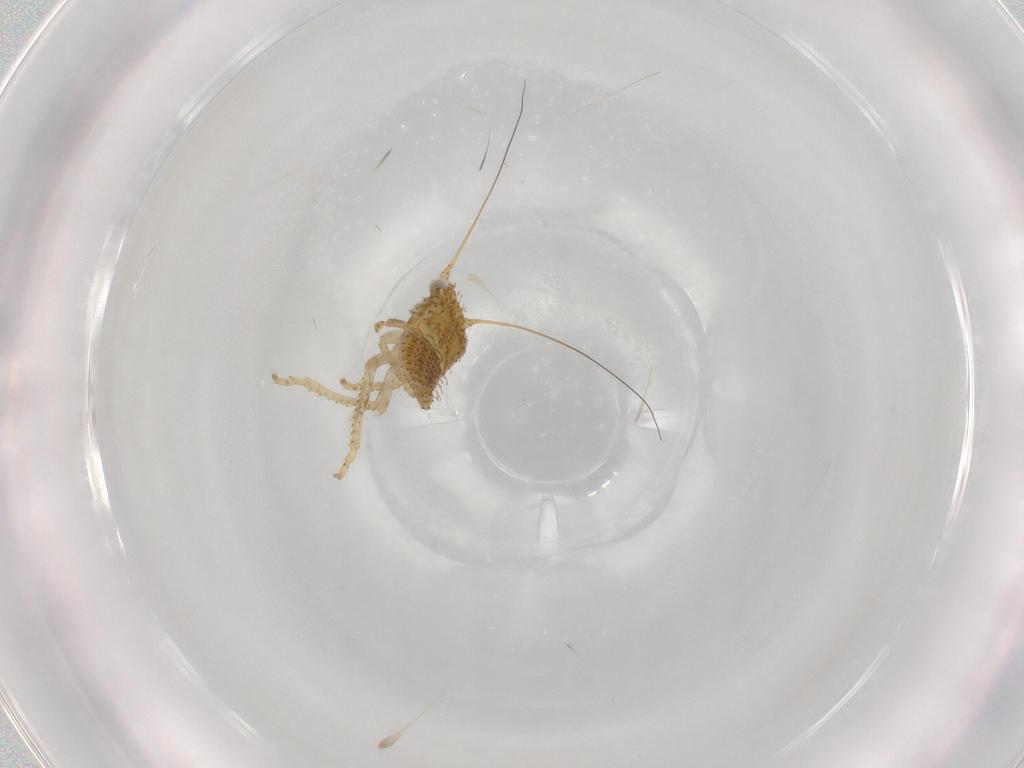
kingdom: Animalia
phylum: Arthropoda
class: Insecta
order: Hemiptera
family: Cicadellidae
